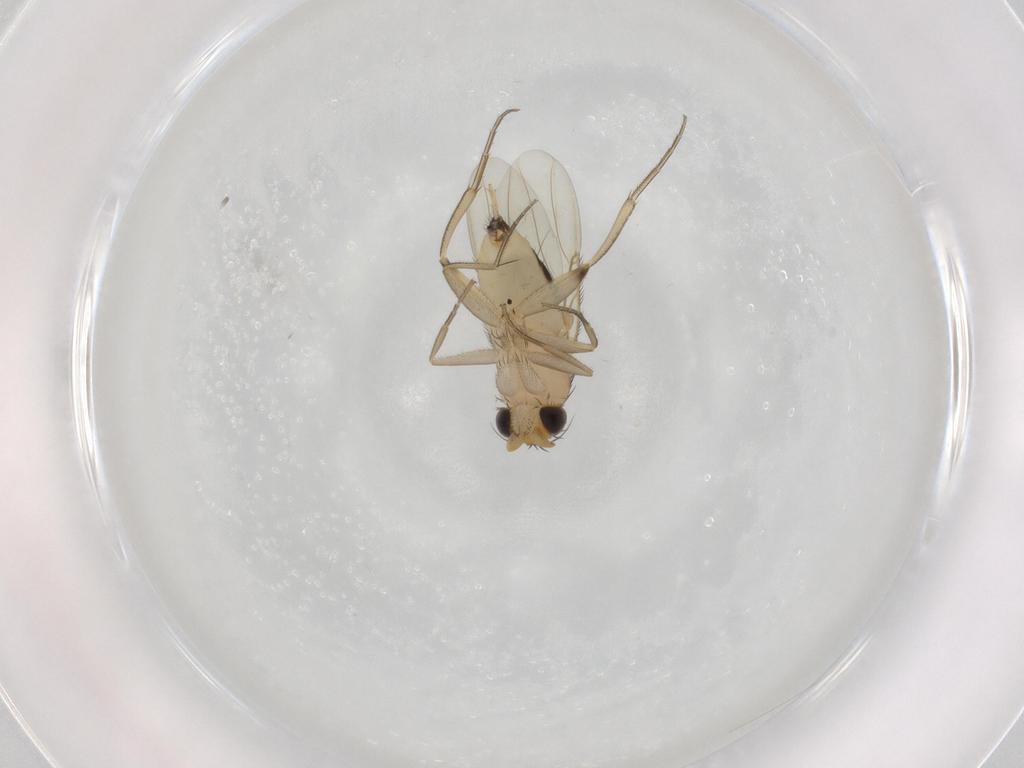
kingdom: Animalia
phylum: Arthropoda
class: Insecta
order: Diptera
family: Phoridae
